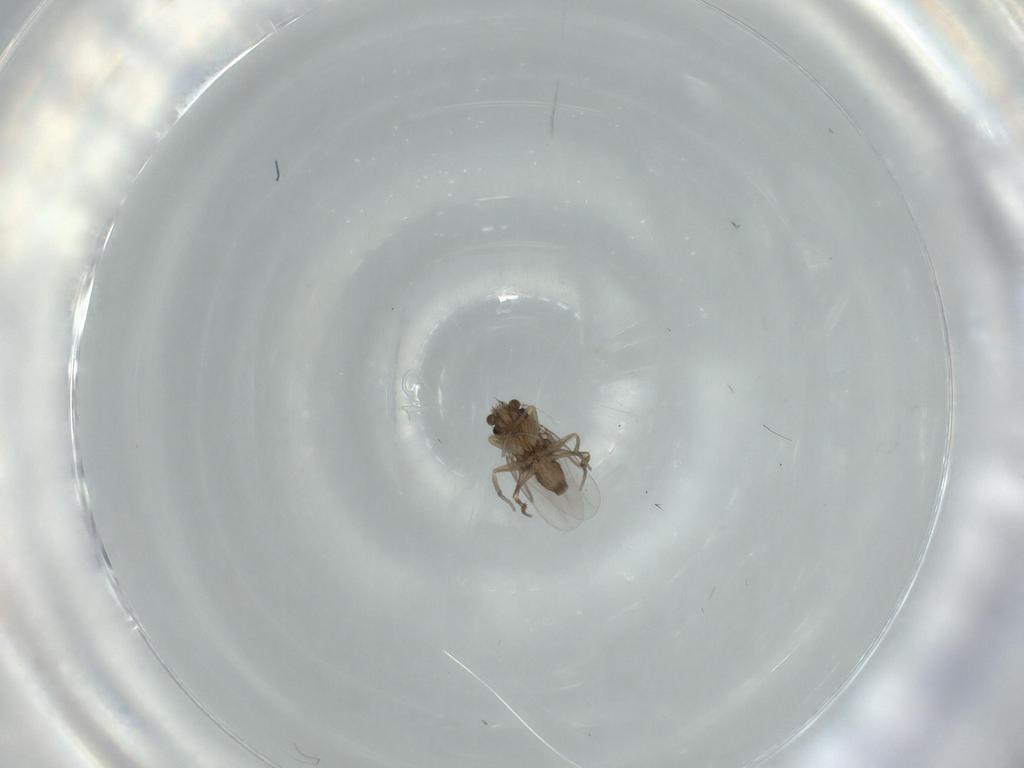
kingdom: Animalia
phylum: Arthropoda
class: Insecta
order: Diptera
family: Phoridae
